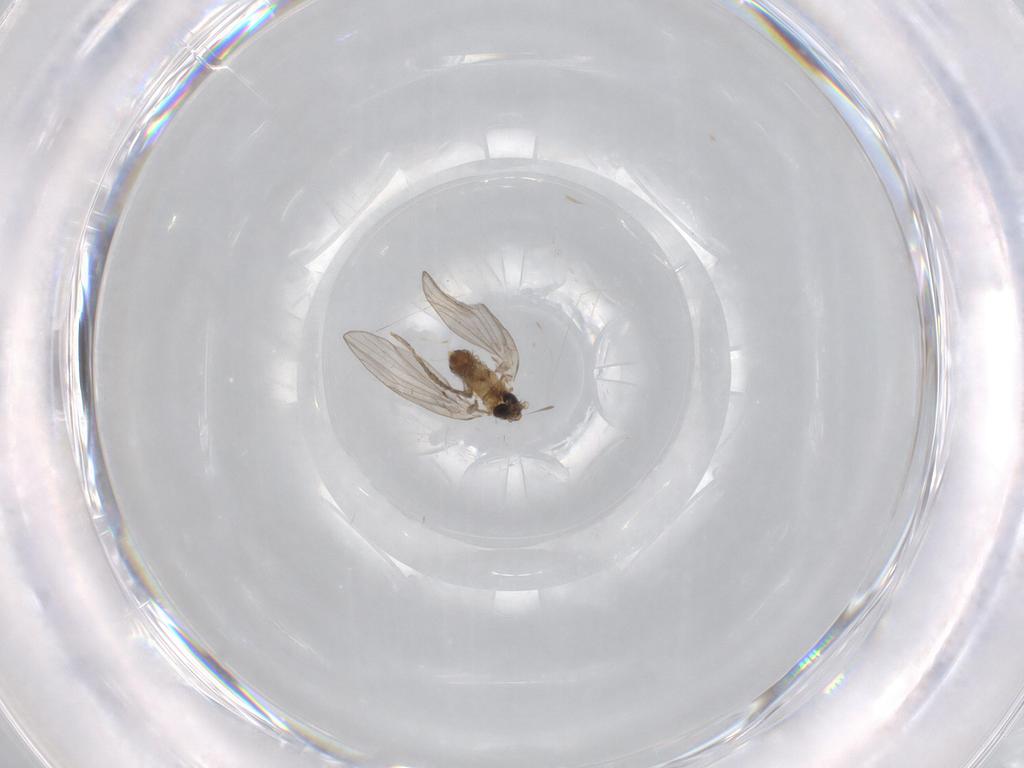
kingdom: Animalia
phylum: Arthropoda
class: Insecta
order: Diptera
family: Psychodidae
